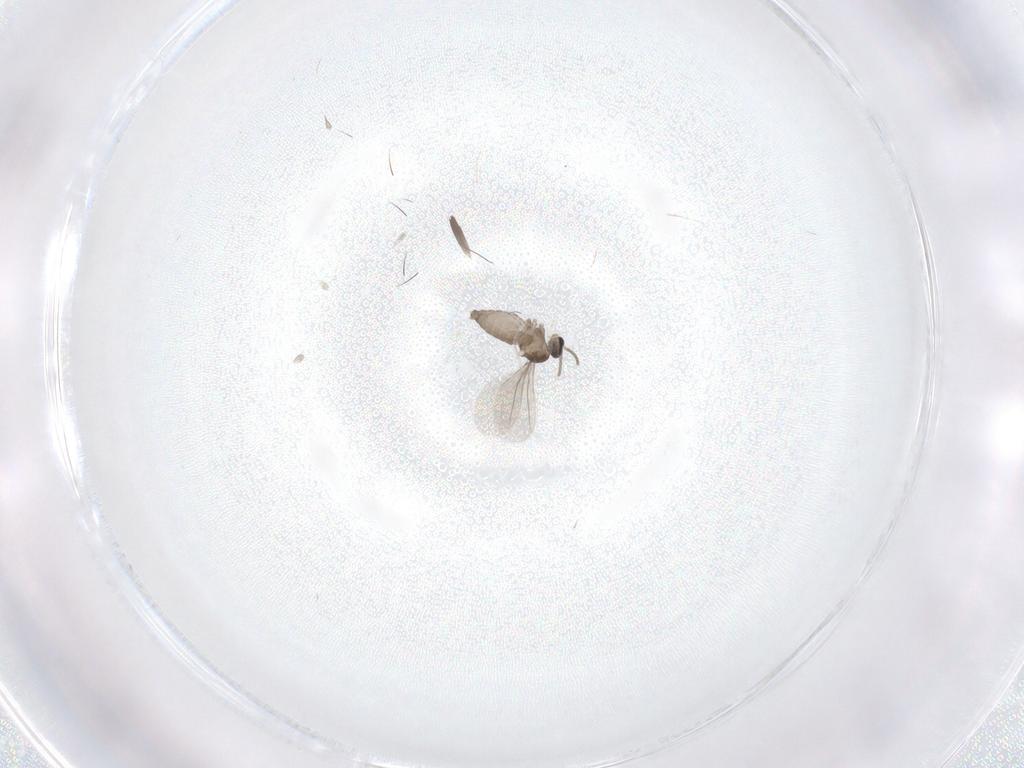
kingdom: Animalia
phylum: Arthropoda
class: Insecta
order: Diptera
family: Cecidomyiidae
